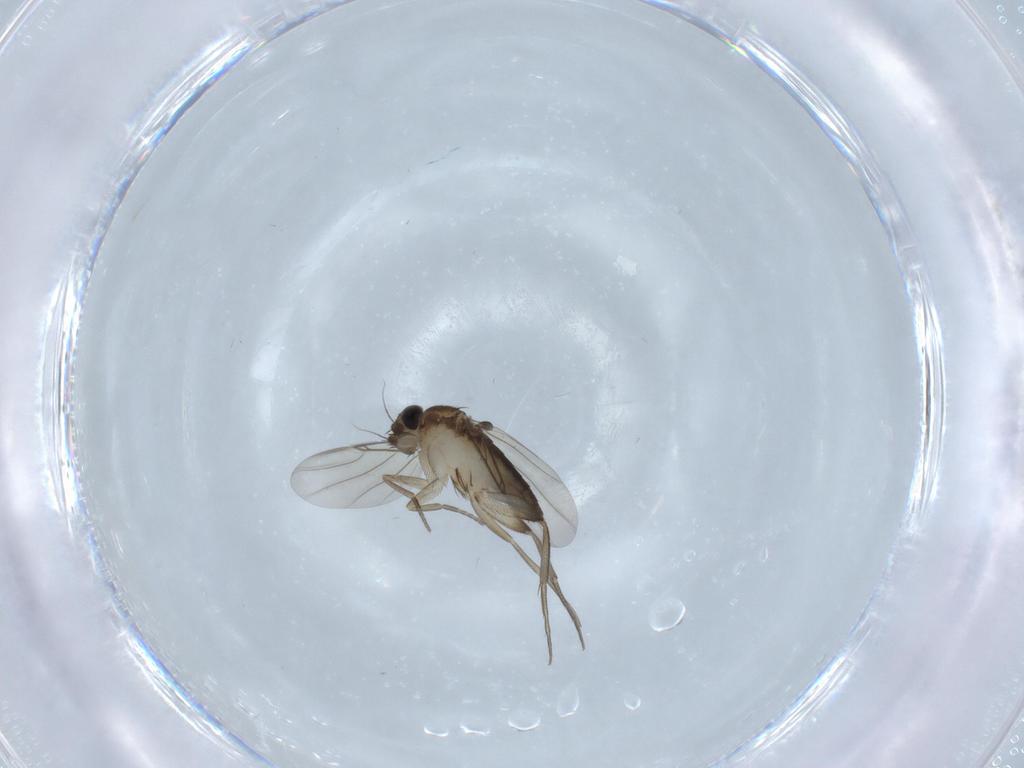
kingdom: Animalia
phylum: Arthropoda
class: Insecta
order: Diptera
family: Phoridae
